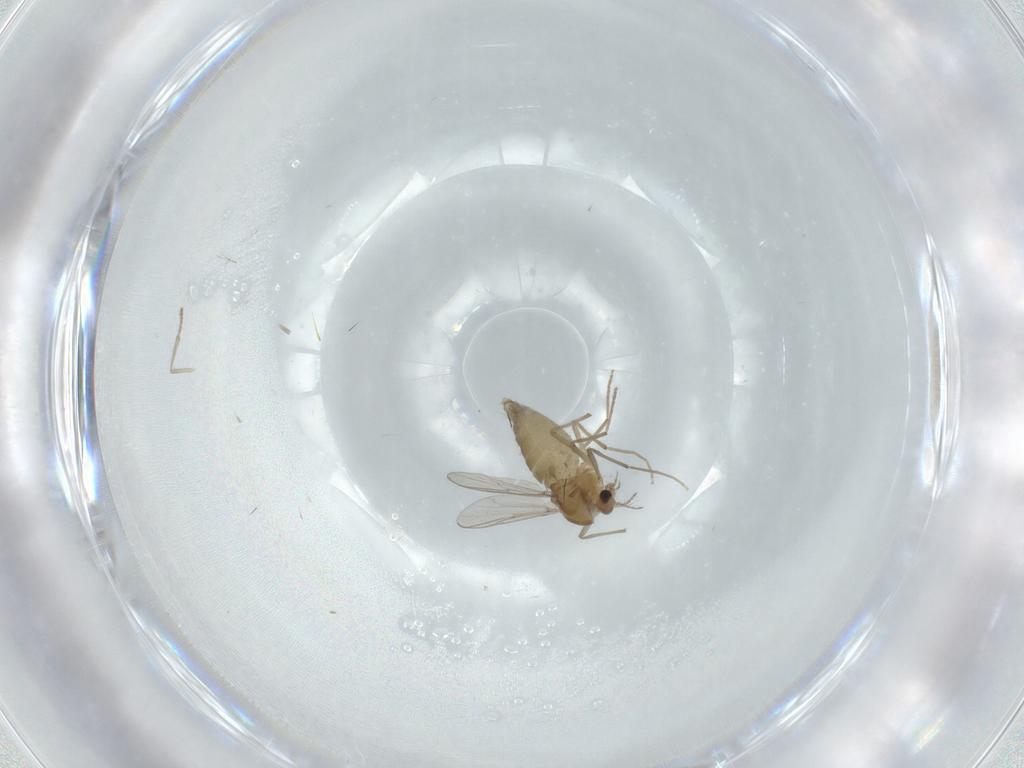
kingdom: Animalia
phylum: Arthropoda
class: Insecta
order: Diptera
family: Chironomidae
